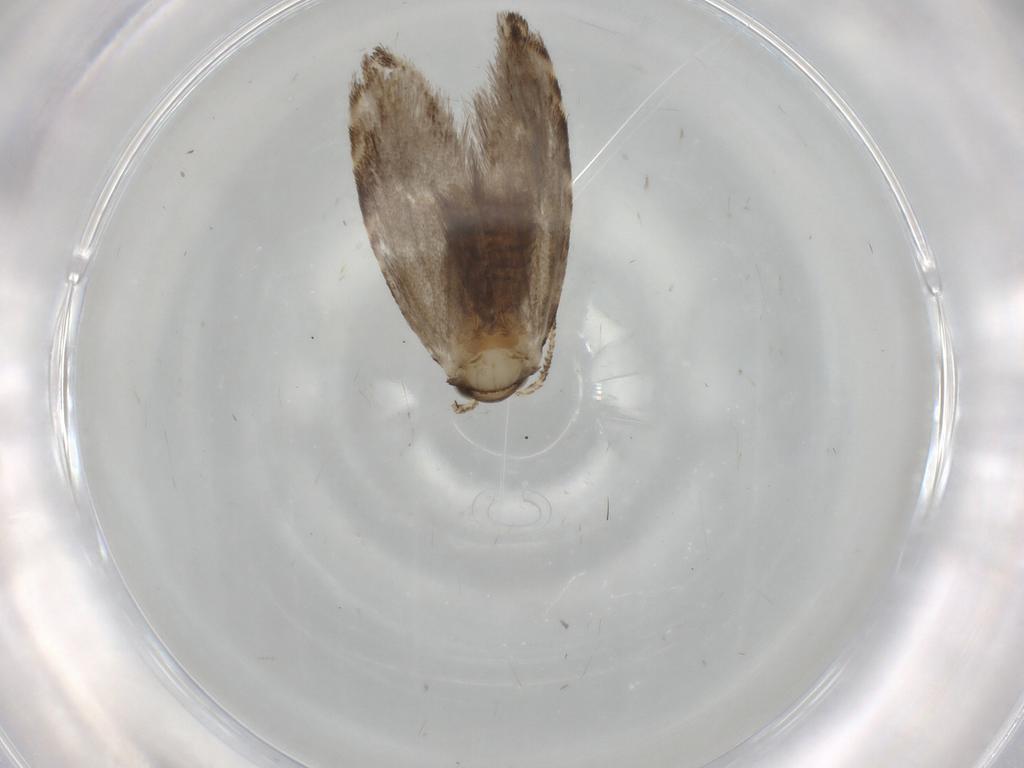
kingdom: Animalia
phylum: Arthropoda
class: Insecta
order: Lepidoptera
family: Tineidae
